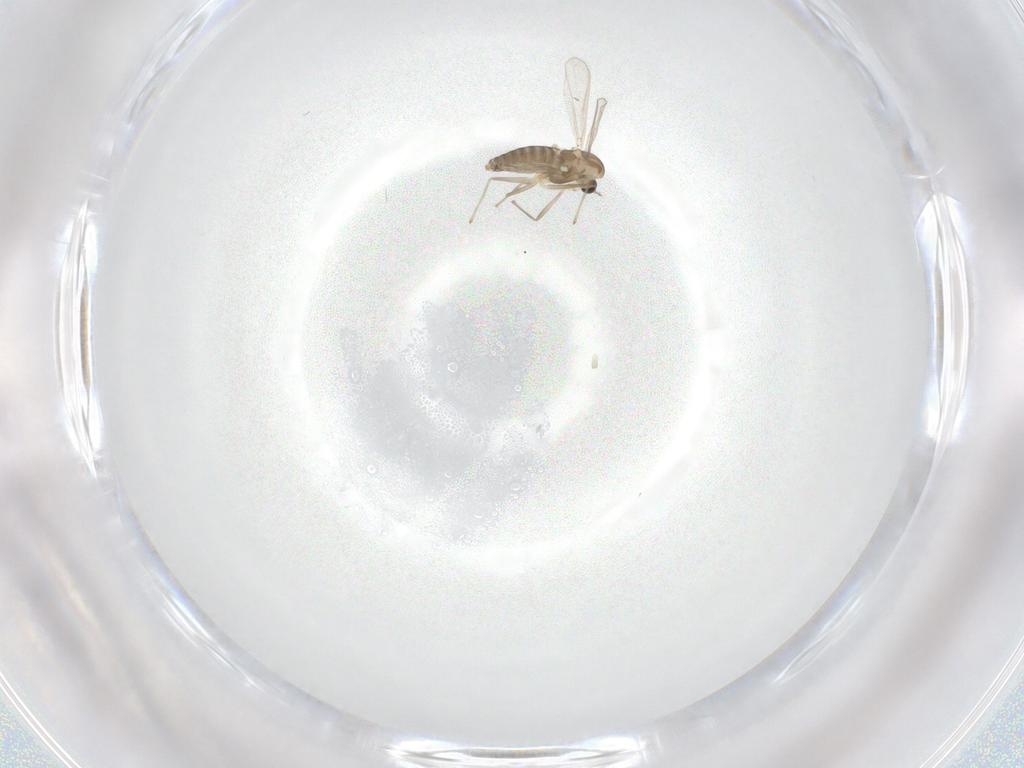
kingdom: Animalia
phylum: Arthropoda
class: Insecta
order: Diptera
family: Chironomidae
